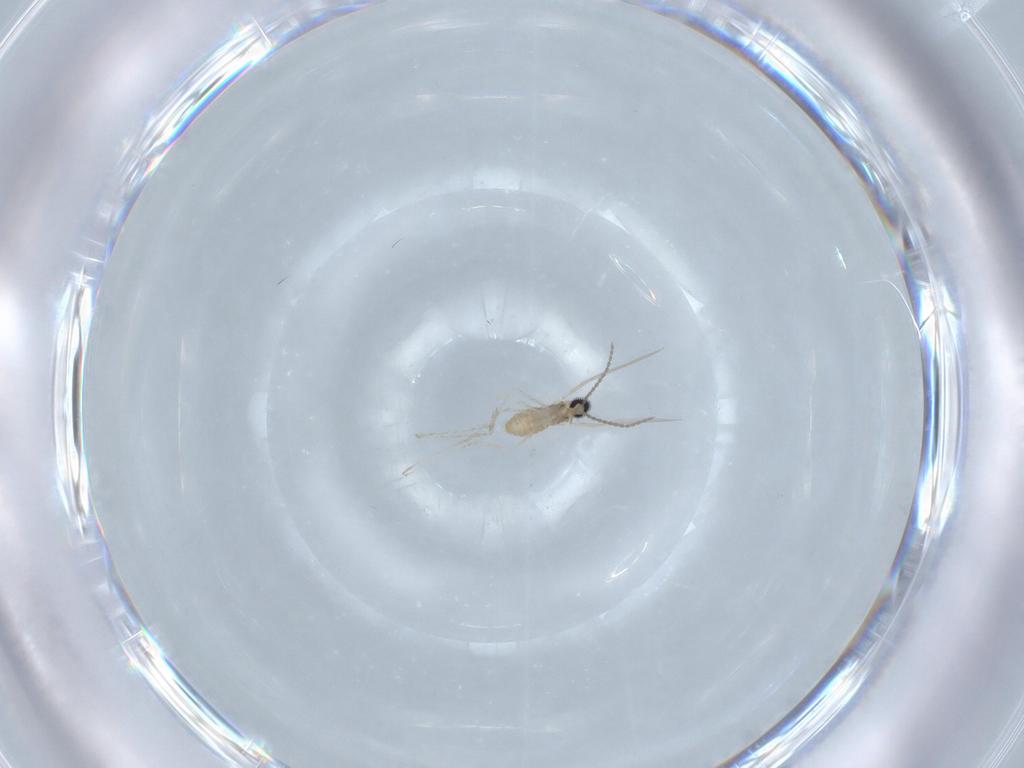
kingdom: Animalia
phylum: Arthropoda
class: Insecta
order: Diptera
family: Cecidomyiidae
